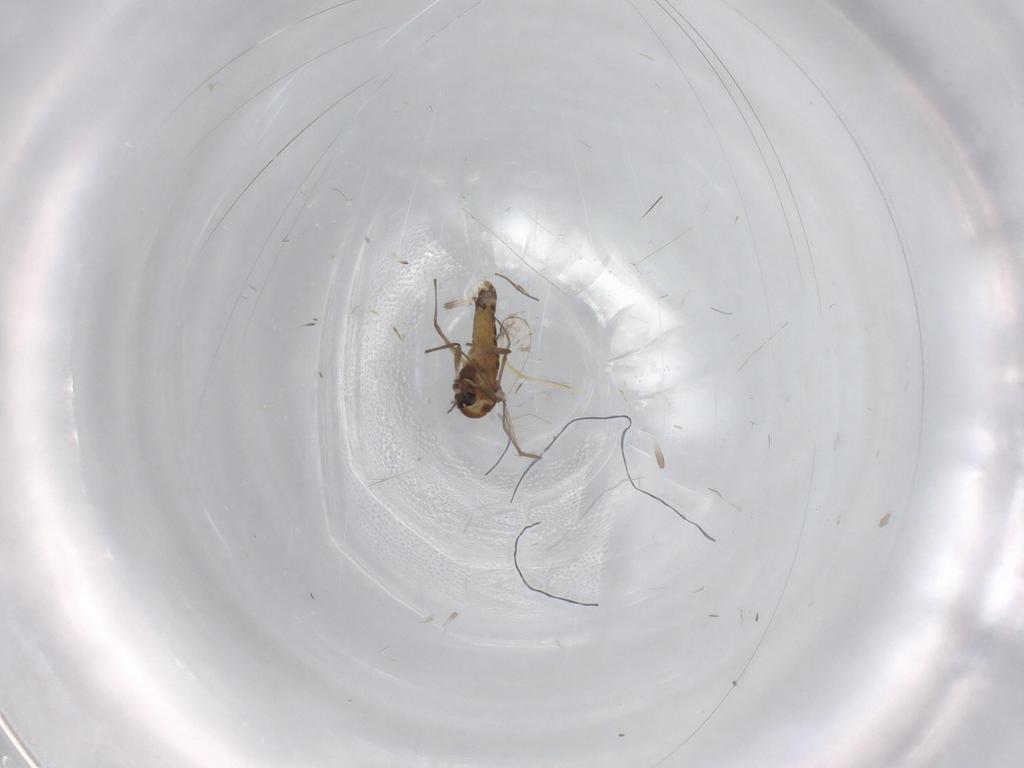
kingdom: Animalia
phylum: Arthropoda
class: Insecta
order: Diptera
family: Chironomidae
